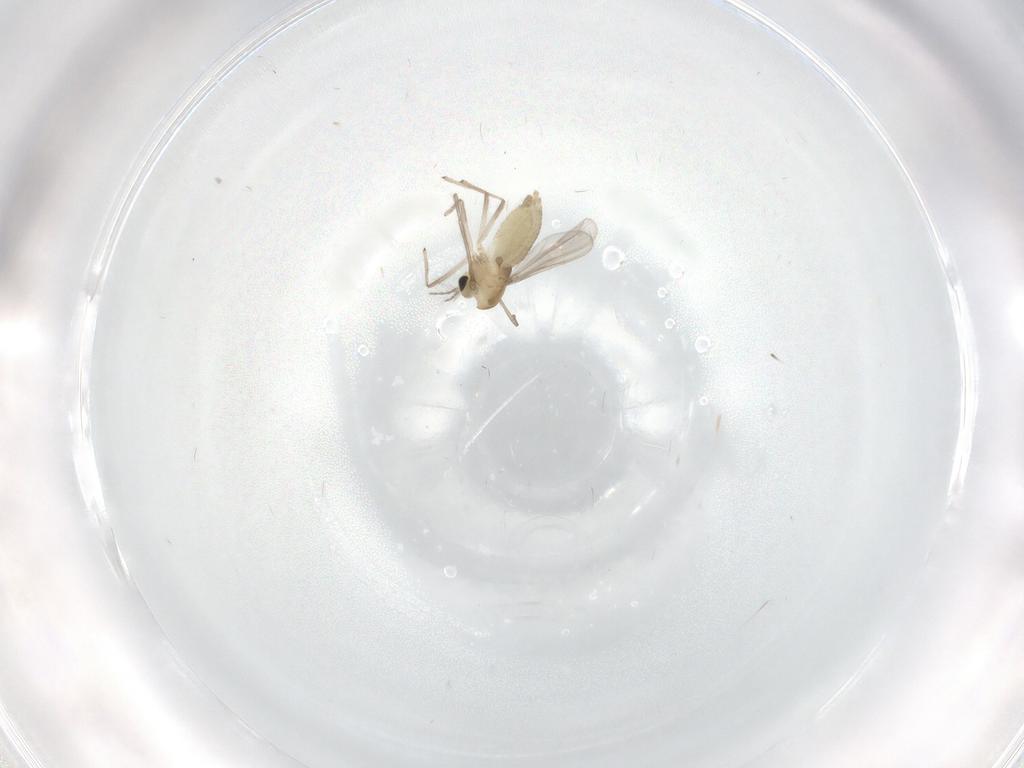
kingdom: Animalia
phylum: Arthropoda
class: Insecta
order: Diptera
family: Chironomidae
